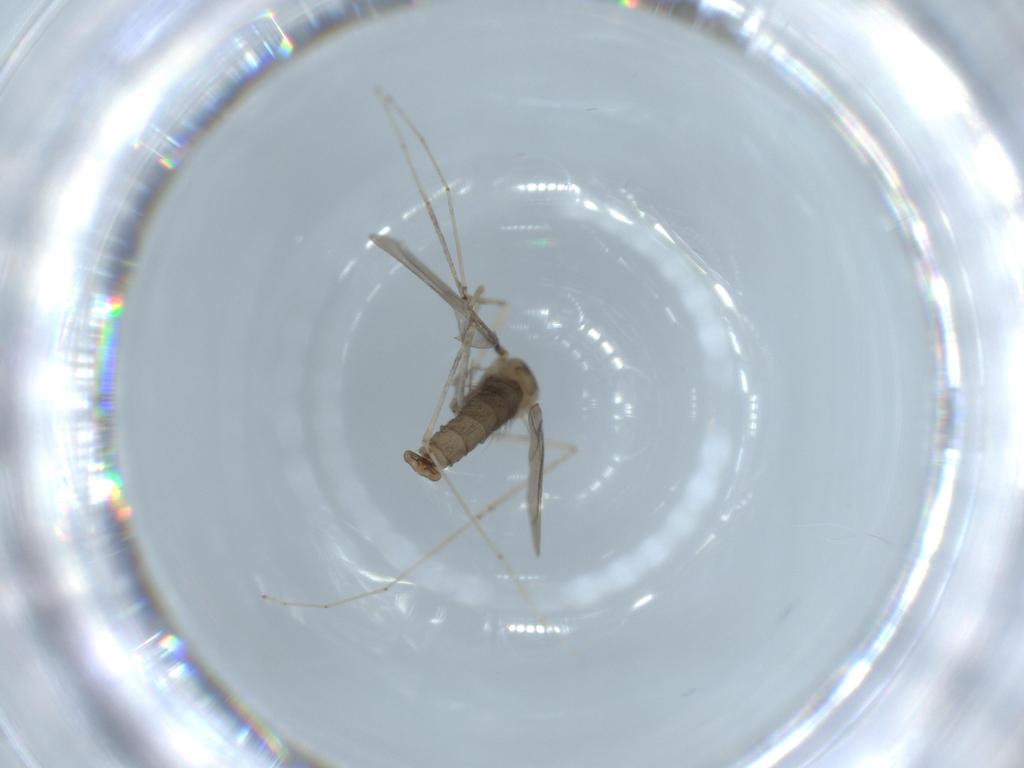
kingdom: Animalia
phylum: Arthropoda
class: Insecta
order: Diptera
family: Cecidomyiidae
